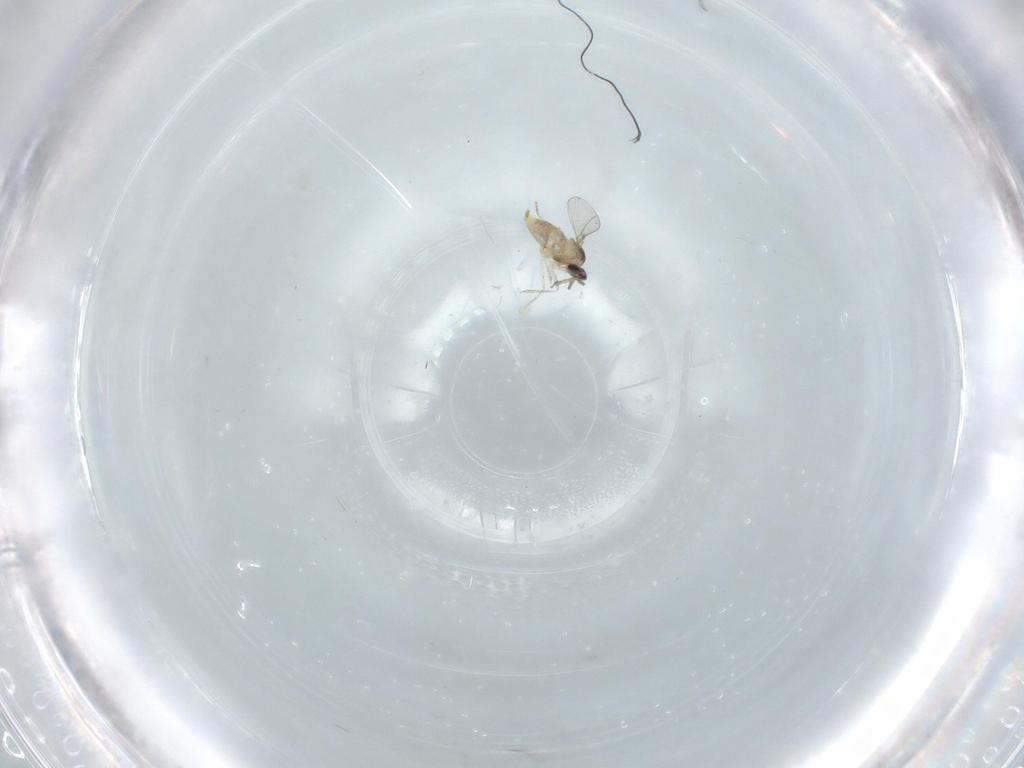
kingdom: Animalia
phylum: Arthropoda
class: Insecta
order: Diptera
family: Cecidomyiidae
